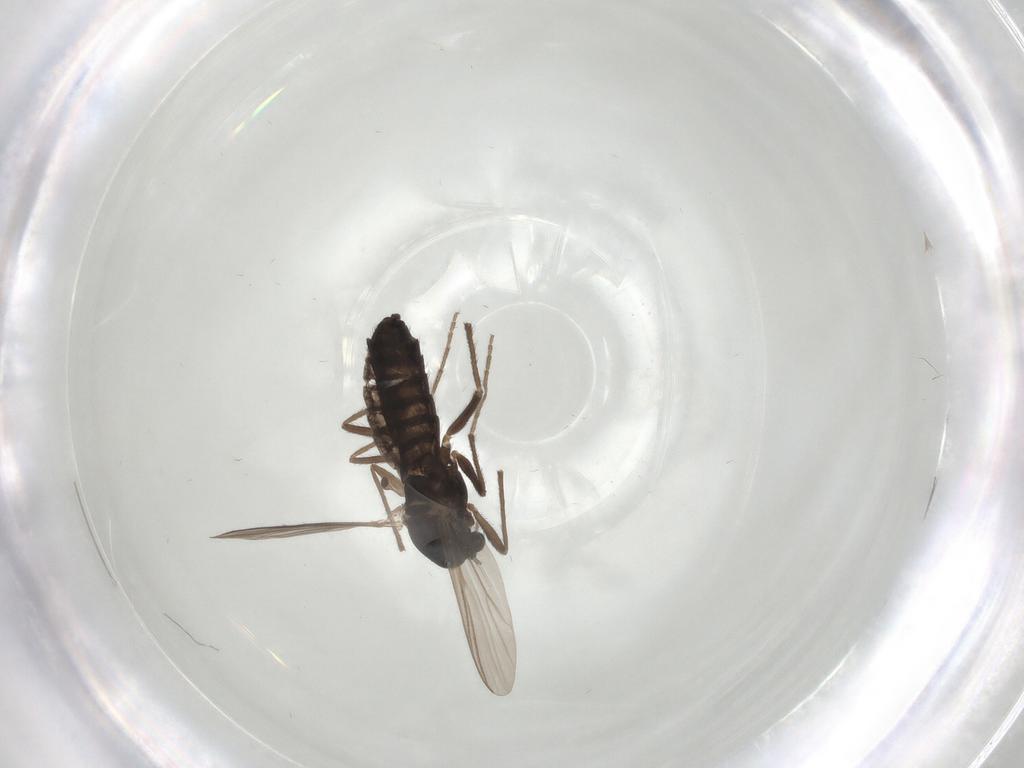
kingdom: Animalia
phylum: Arthropoda
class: Insecta
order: Diptera
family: Chironomidae
